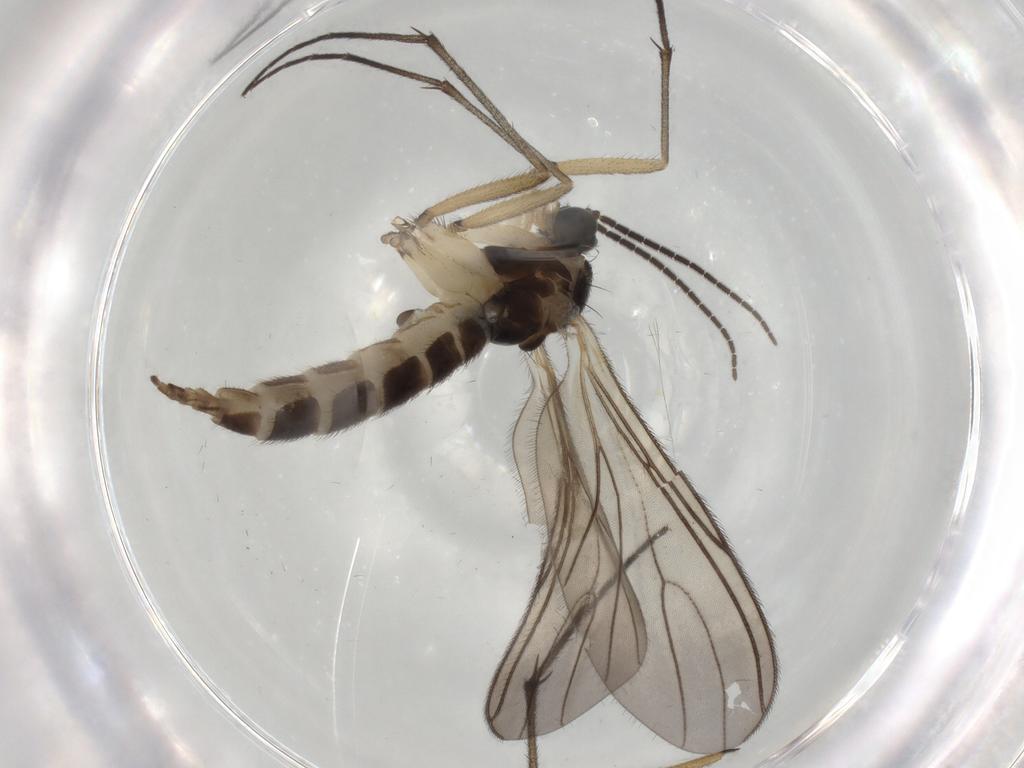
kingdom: Animalia
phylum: Arthropoda
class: Insecta
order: Diptera
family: Sciaridae
